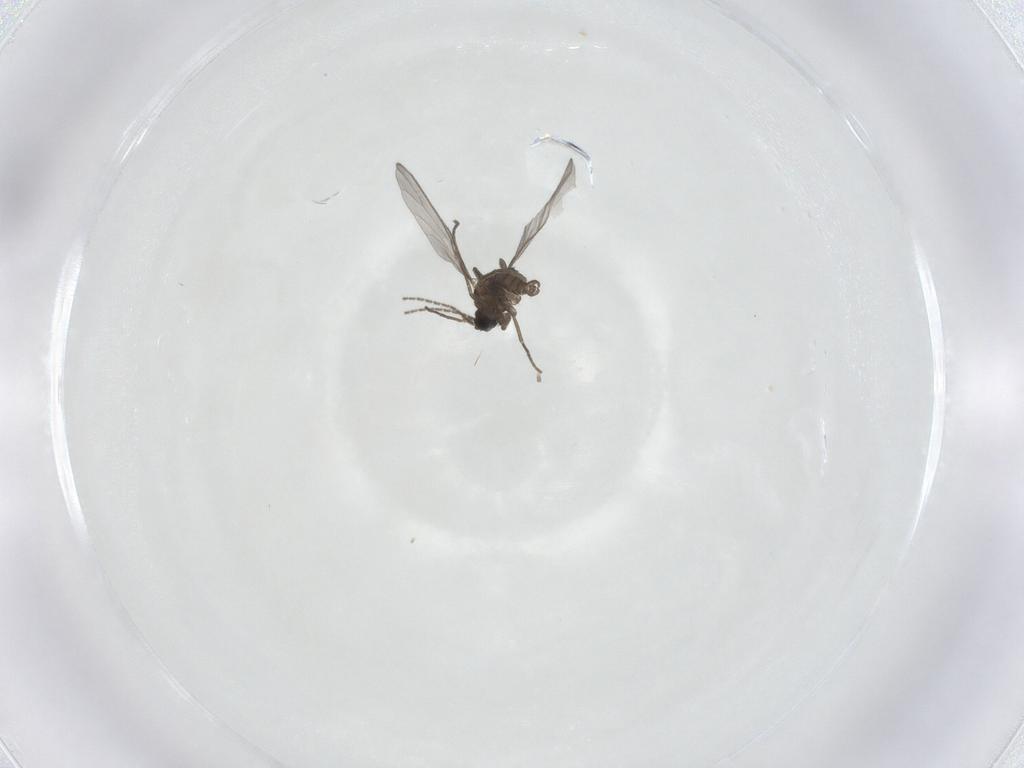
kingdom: Animalia
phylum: Arthropoda
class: Insecta
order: Diptera
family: Sciaridae
